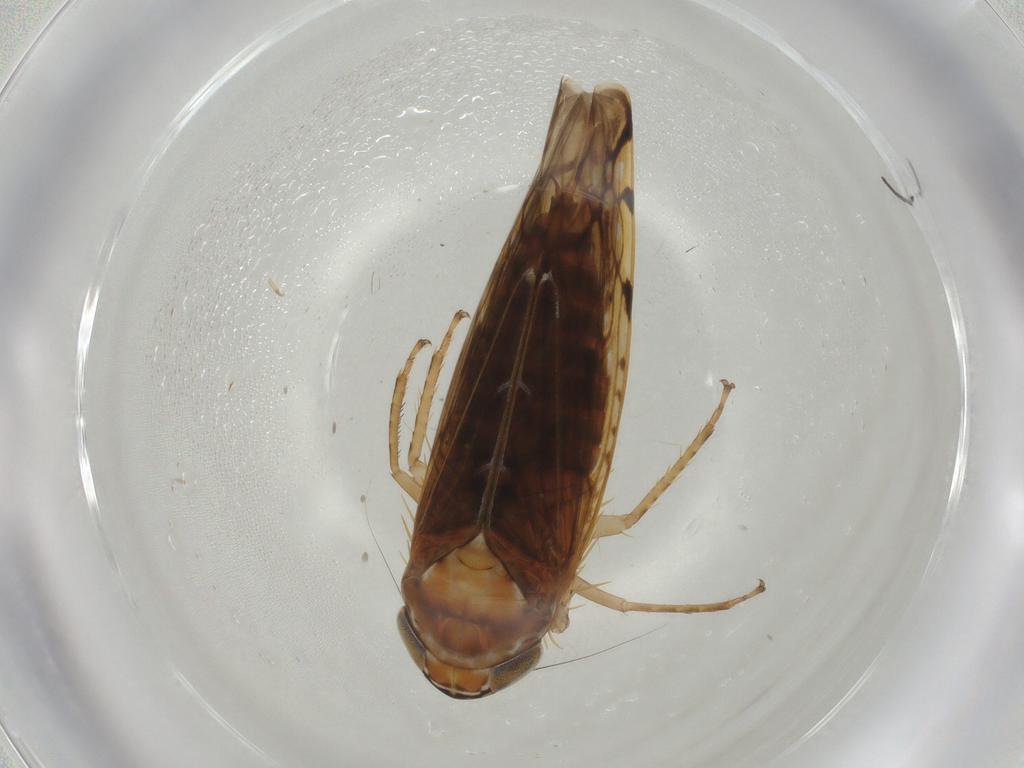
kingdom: Animalia
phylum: Arthropoda
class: Insecta
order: Hemiptera
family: Cicadellidae
